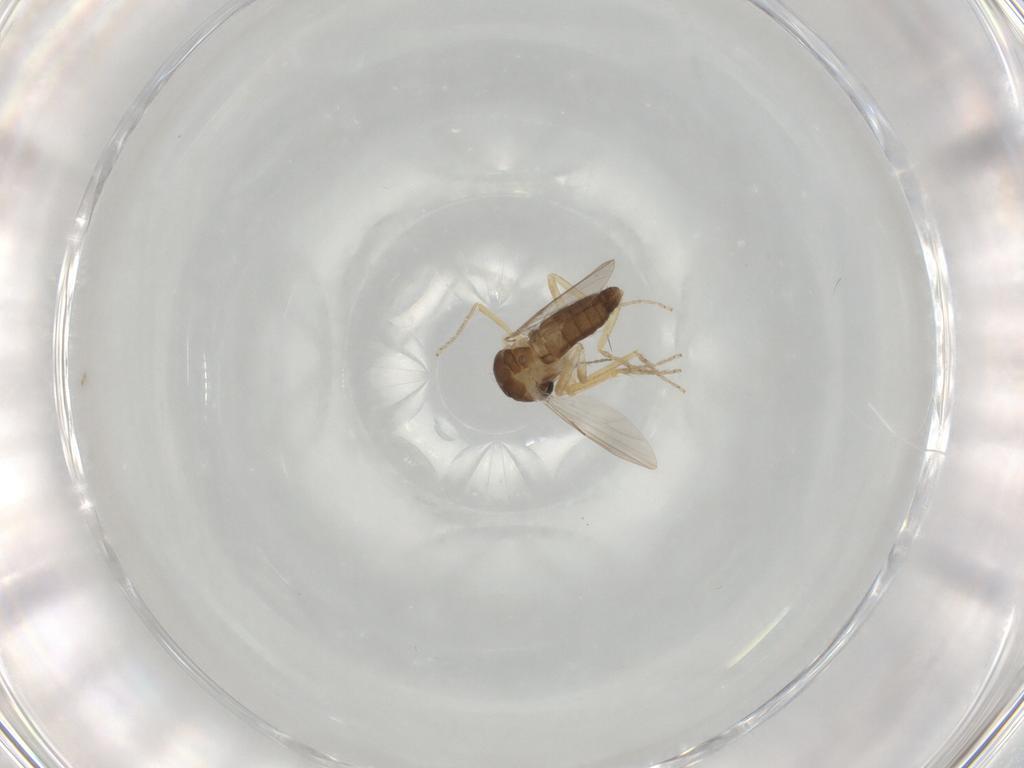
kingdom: Animalia
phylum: Arthropoda
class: Insecta
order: Diptera
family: Ceratopogonidae
